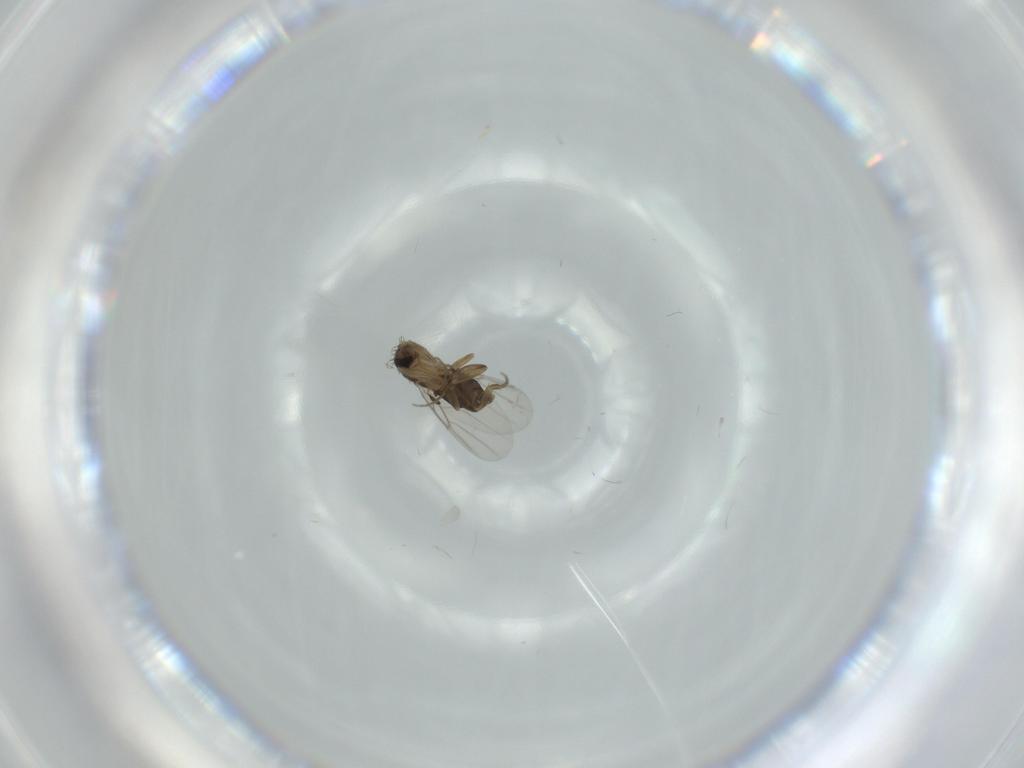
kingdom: Animalia
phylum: Arthropoda
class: Insecta
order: Diptera
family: Phoridae
